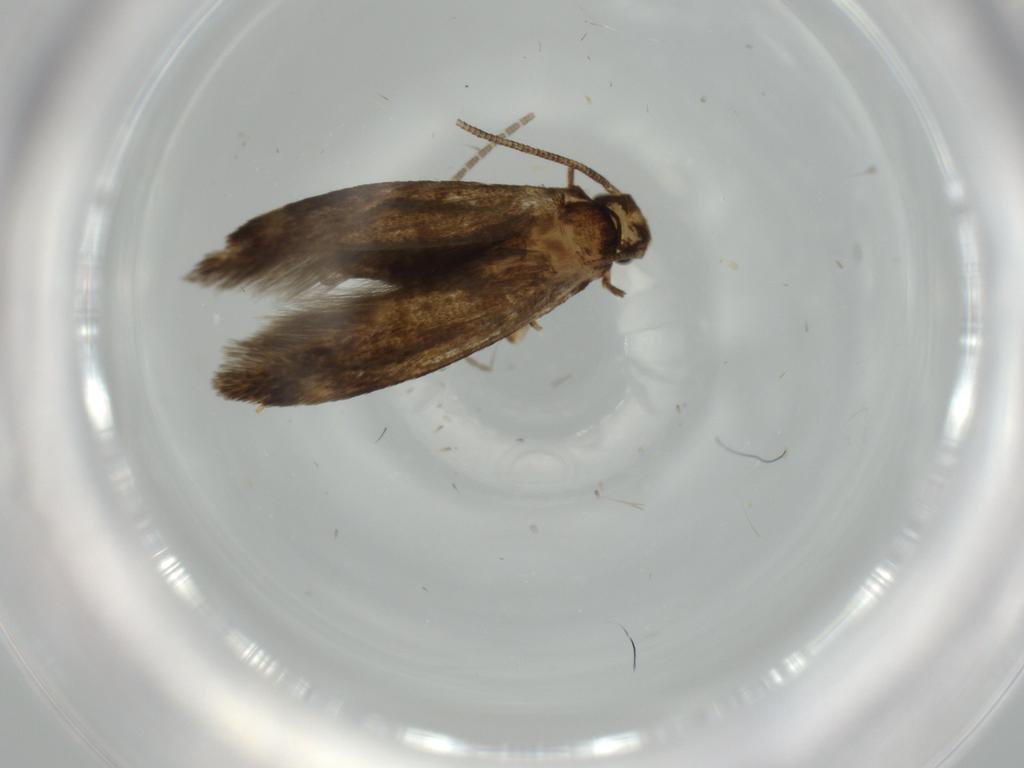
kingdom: Animalia
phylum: Arthropoda
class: Insecta
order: Lepidoptera
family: Tineidae
